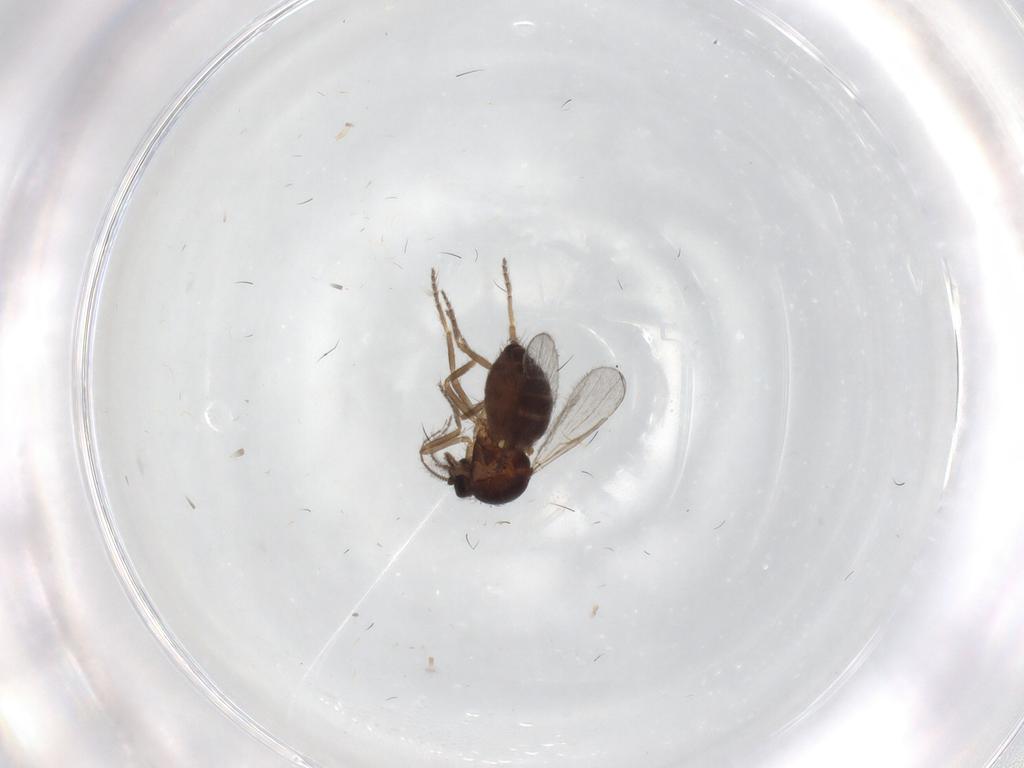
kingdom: Animalia
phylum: Arthropoda
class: Insecta
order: Diptera
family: Ceratopogonidae
